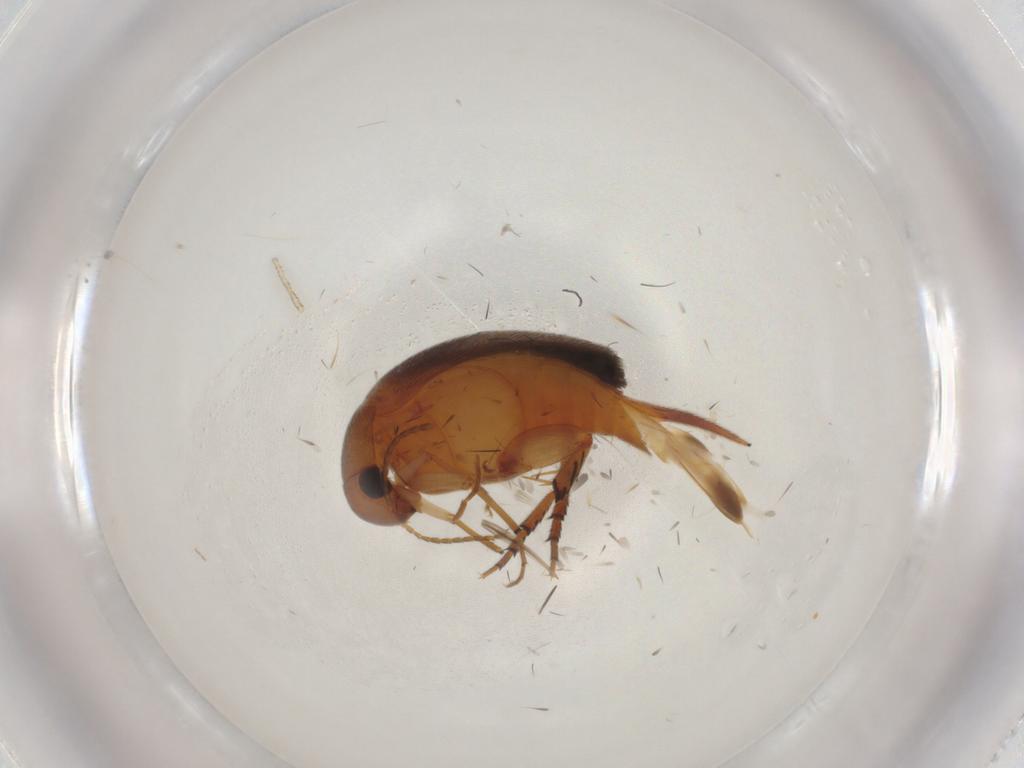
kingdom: Animalia
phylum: Arthropoda
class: Insecta
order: Coleoptera
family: Mordellidae
